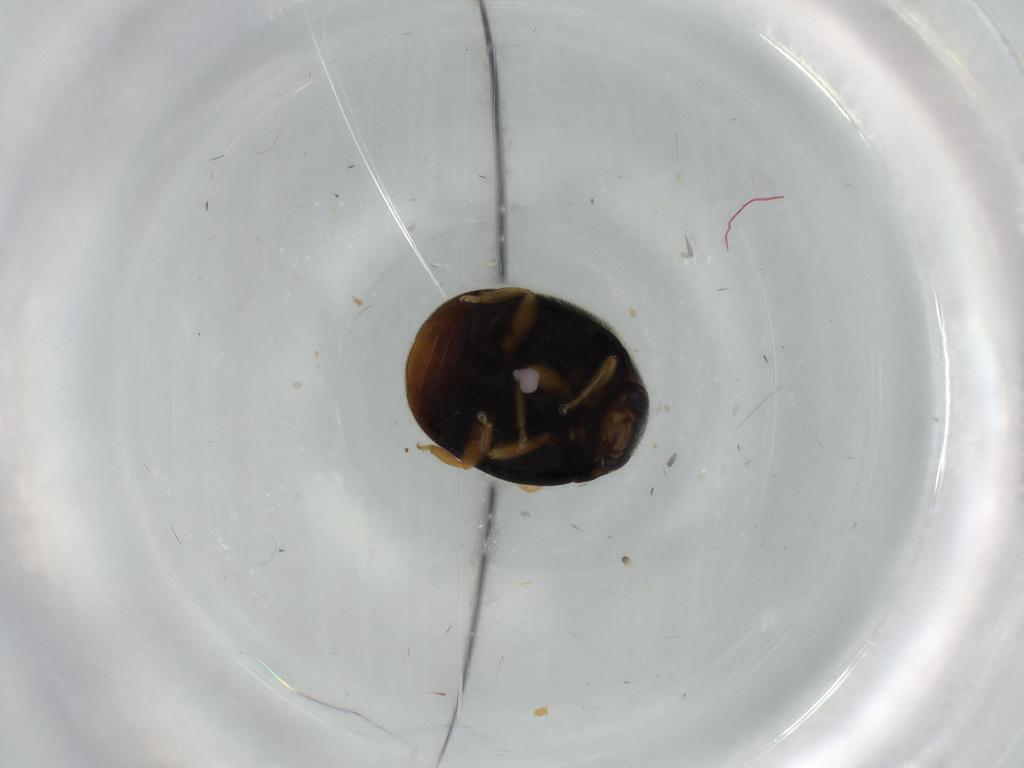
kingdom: Animalia
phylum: Arthropoda
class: Insecta
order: Coleoptera
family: Coccinellidae
